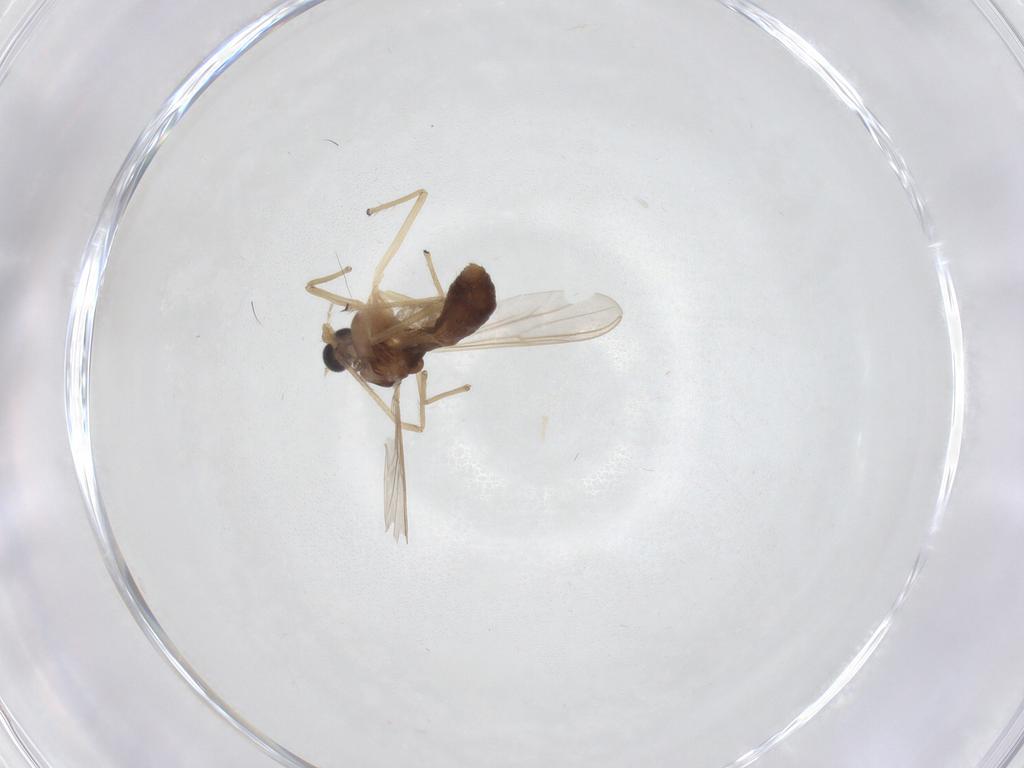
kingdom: Animalia
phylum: Arthropoda
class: Insecta
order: Diptera
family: Chironomidae
